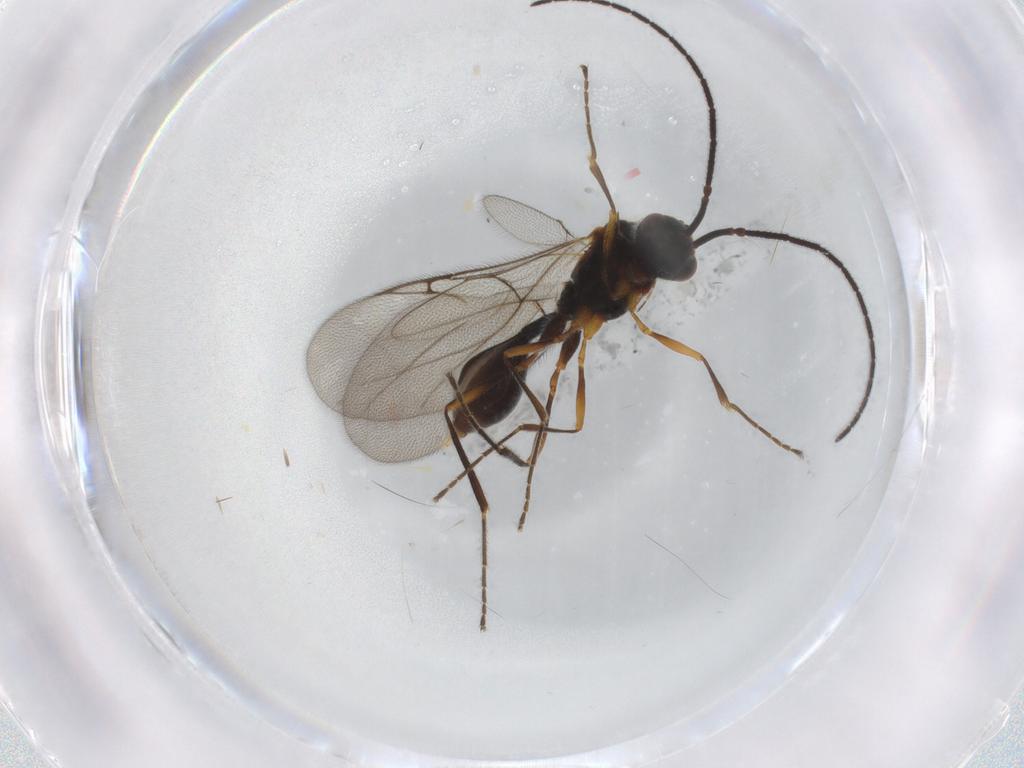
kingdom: Animalia
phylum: Arthropoda
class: Insecta
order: Hymenoptera
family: Diapriidae
